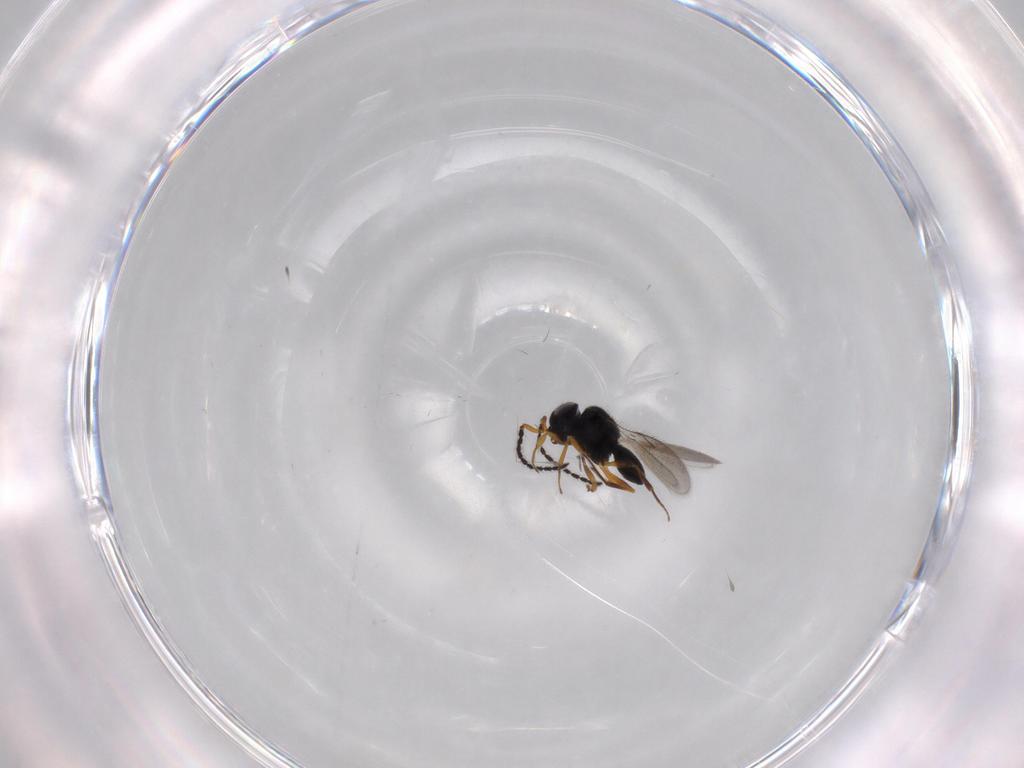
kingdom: Animalia
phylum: Arthropoda
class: Insecta
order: Hymenoptera
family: Scelionidae
